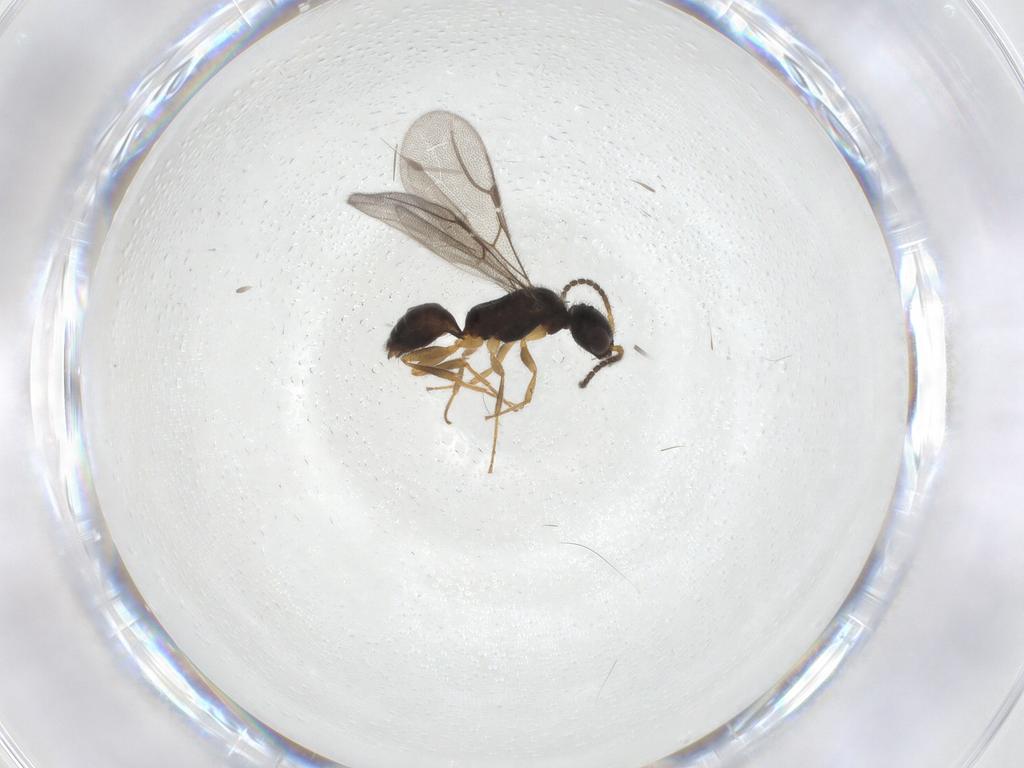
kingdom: Animalia
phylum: Arthropoda
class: Insecta
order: Hymenoptera
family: Bethylidae
